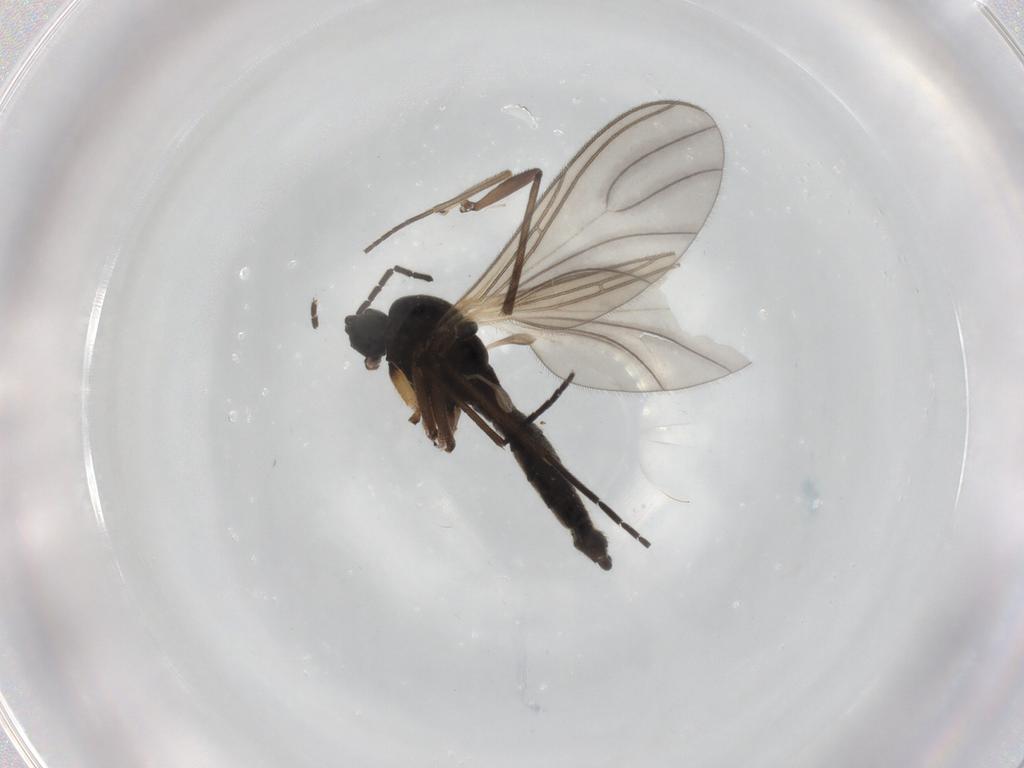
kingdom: Animalia
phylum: Arthropoda
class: Insecta
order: Diptera
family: Sciaridae
